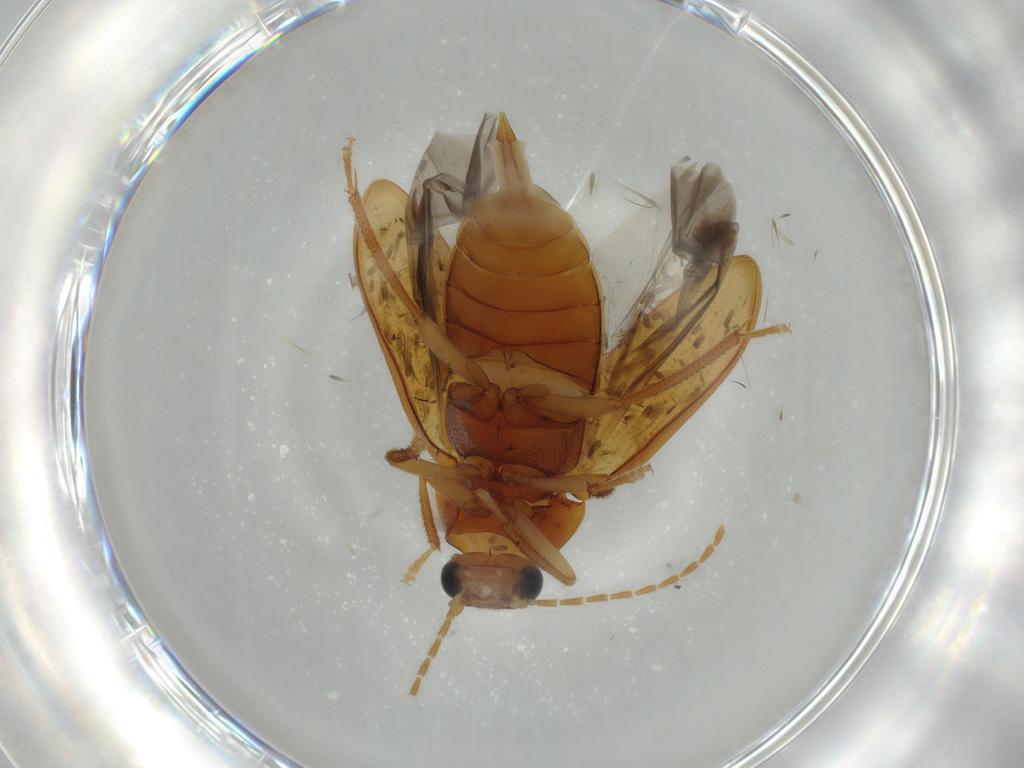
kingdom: Animalia
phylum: Arthropoda
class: Insecta
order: Coleoptera
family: Ptilodactylidae
